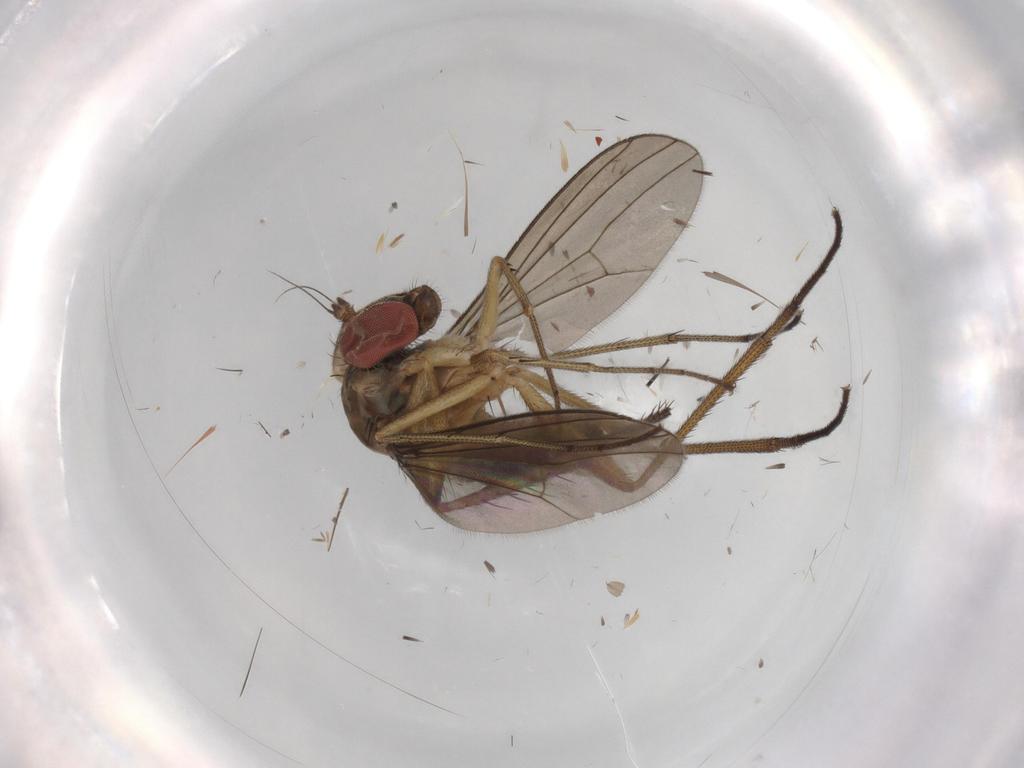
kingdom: Animalia
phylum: Arthropoda
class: Insecta
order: Diptera
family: Dolichopodidae
